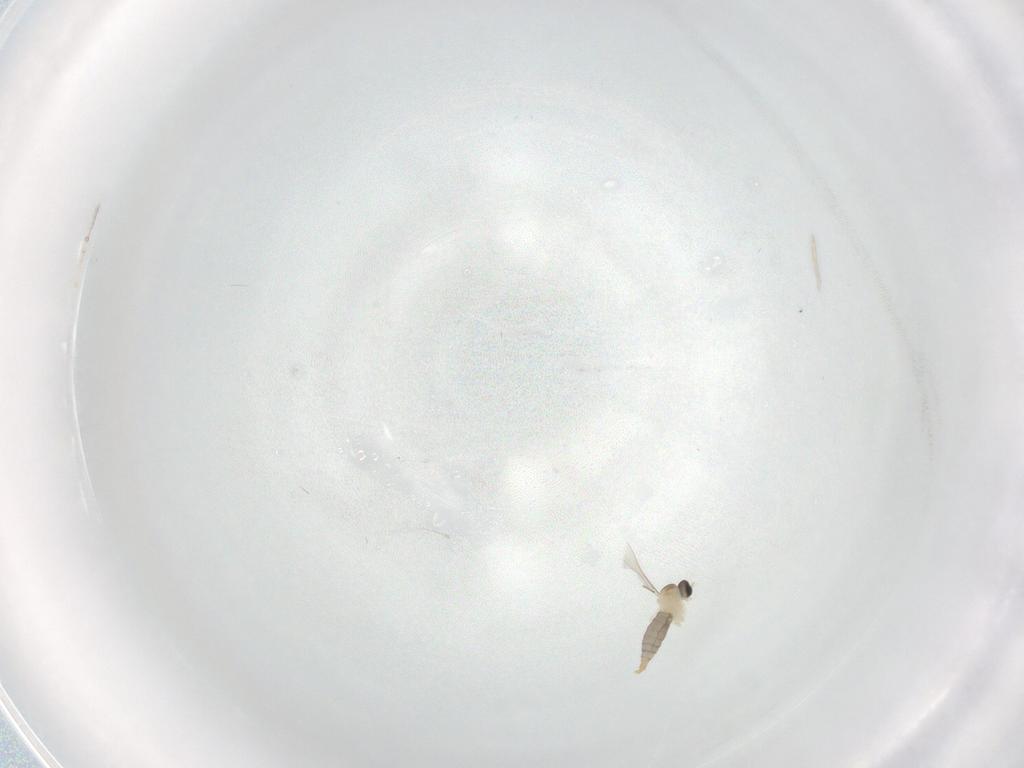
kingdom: Animalia
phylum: Arthropoda
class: Insecta
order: Diptera
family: Cecidomyiidae
